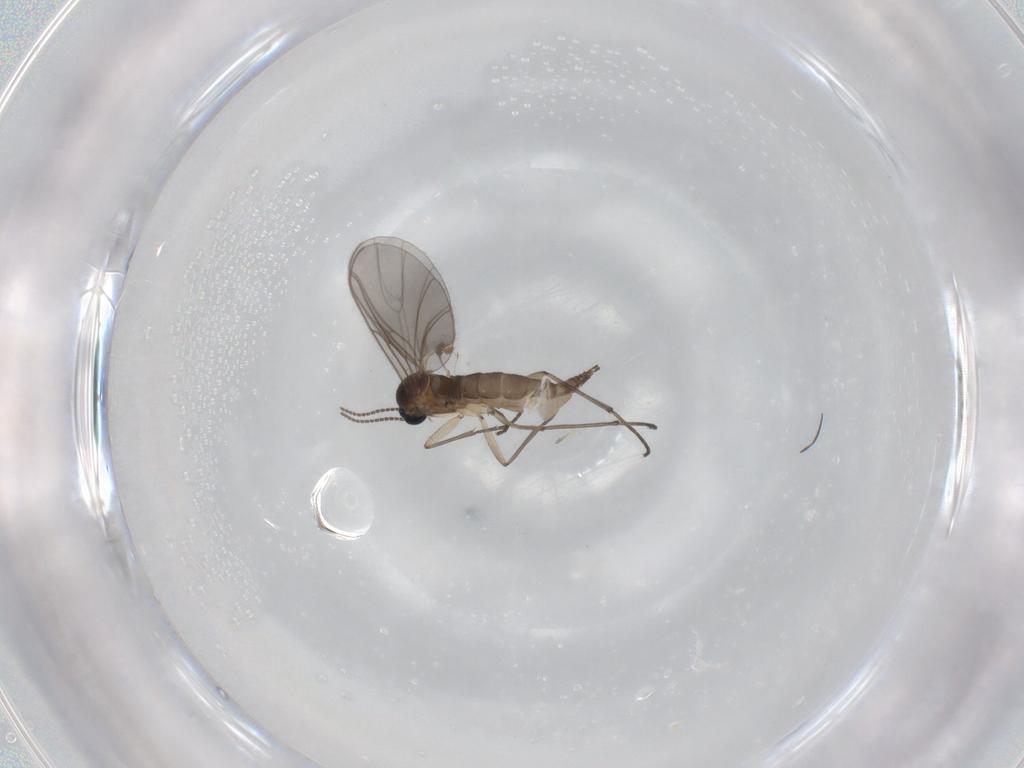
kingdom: Animalia
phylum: Arthropoda
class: Insecta
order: Diptera
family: Sciaridae
